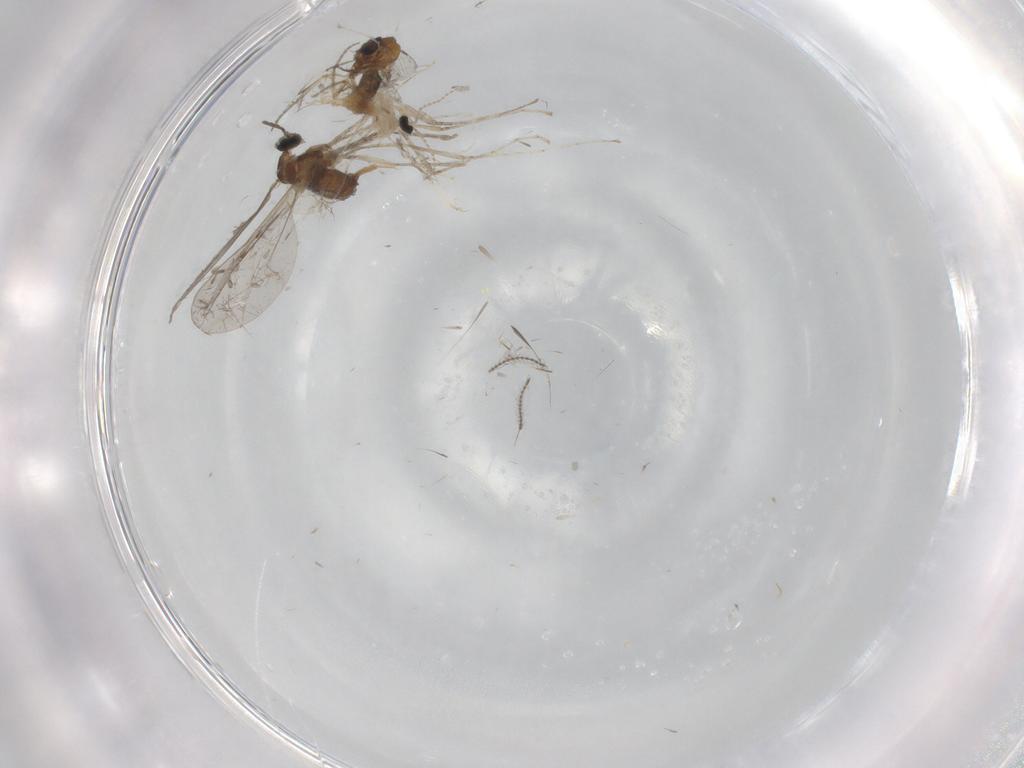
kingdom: Animalia
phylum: Arthropoda
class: Insecta
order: Diptera
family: Cecidomyiidae
